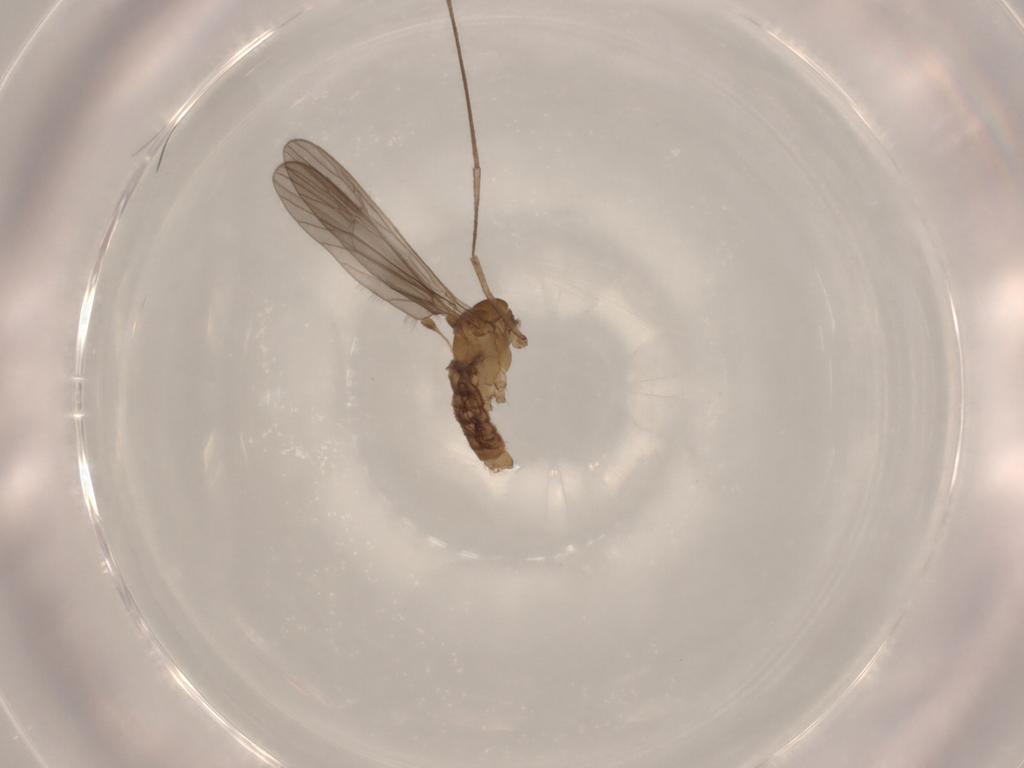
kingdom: Animalia
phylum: Arthropoda
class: Insecta
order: Diptera
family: Limoniidae
